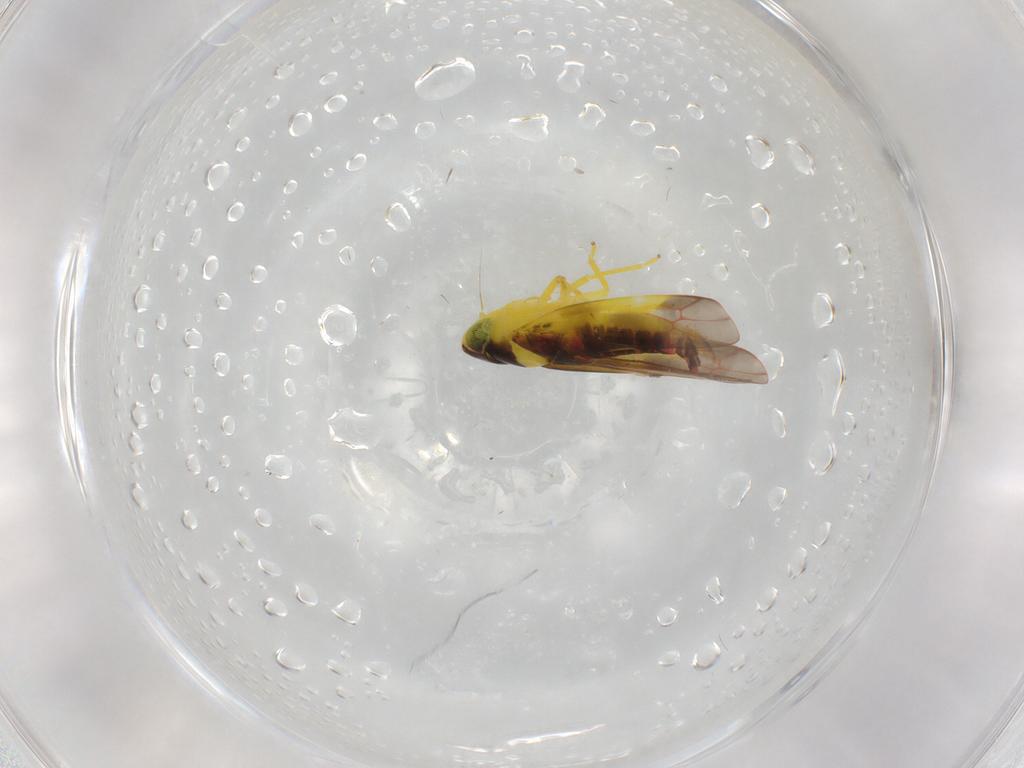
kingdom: Animalia
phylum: Arthropoda
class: Insecta
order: Hemiptera
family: Cicadellidae
